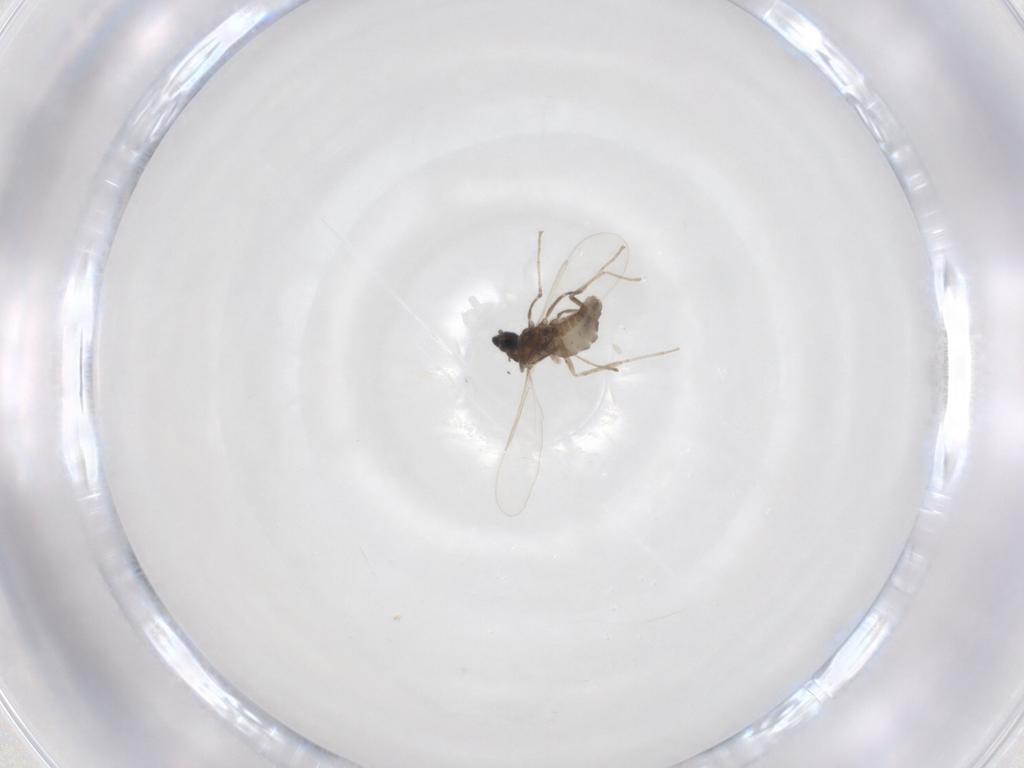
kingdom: Animalia
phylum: Arthropoda
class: Insecta
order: Diptera
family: Cecidomyiidae
